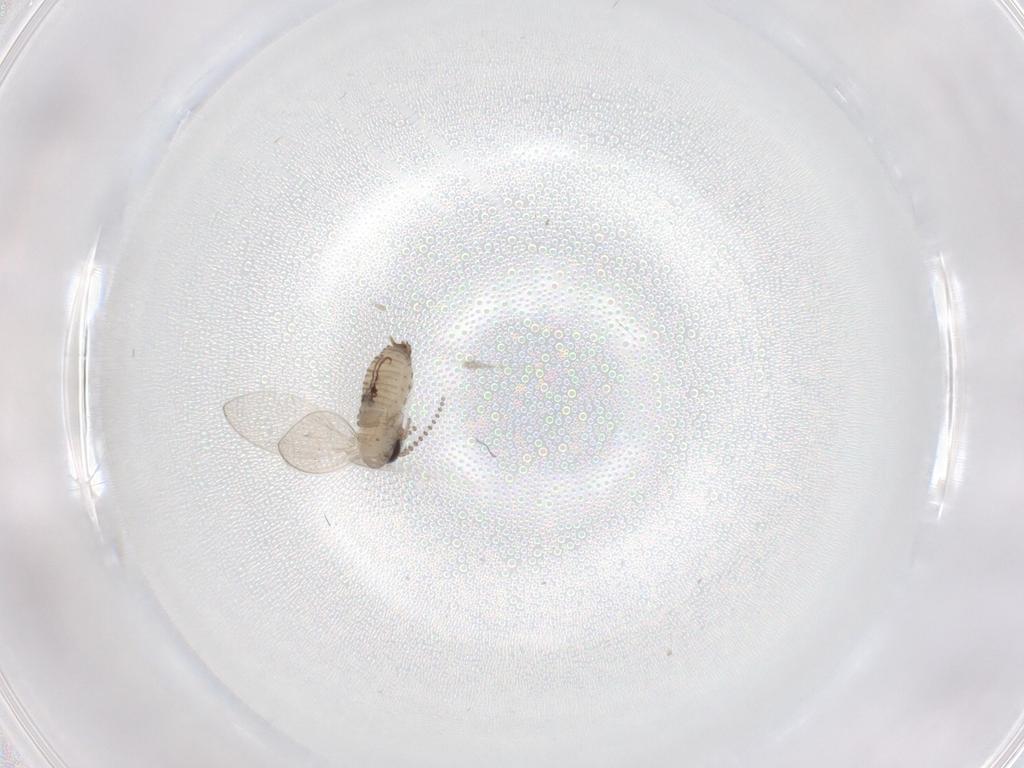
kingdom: Animalia
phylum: Arthropoda
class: Insecta
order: Diptera
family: Psychodidae
